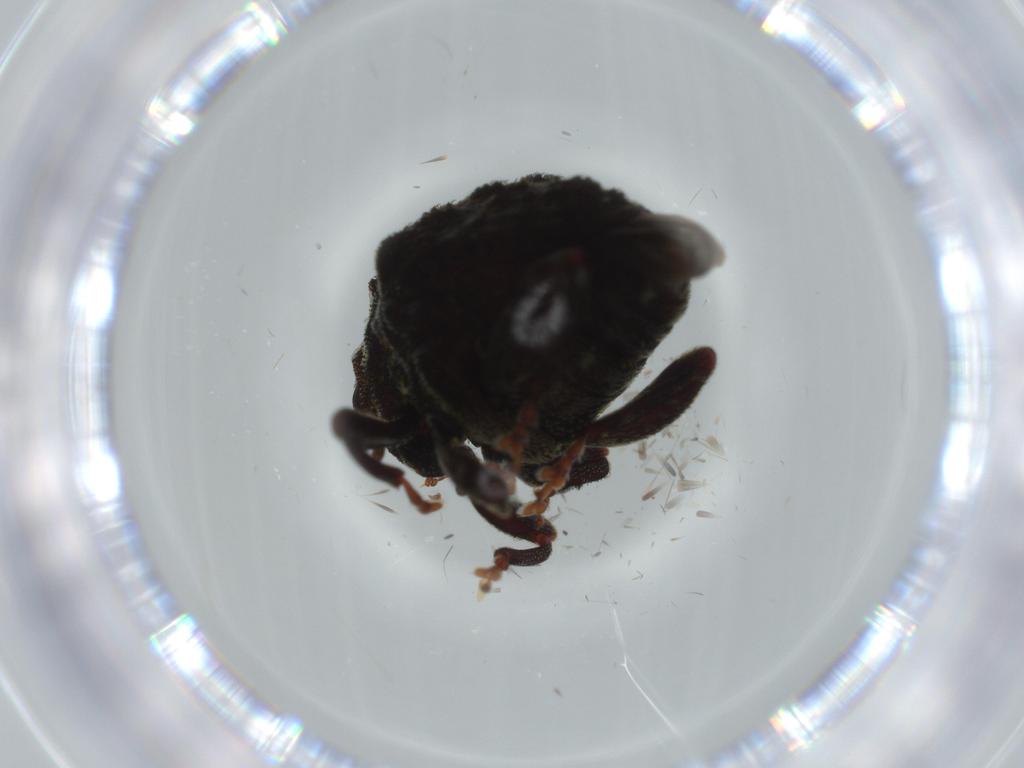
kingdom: Animalia
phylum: Arthropoda
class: Insecta
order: Coleoptera
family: Curculionidae
